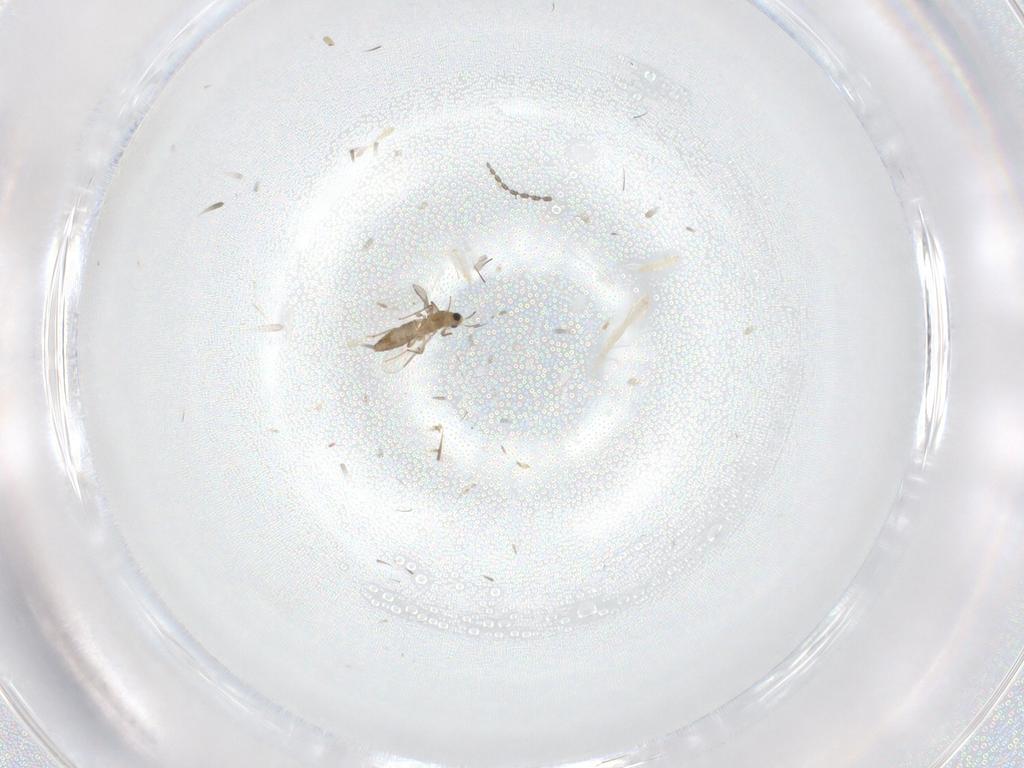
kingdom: Animalia
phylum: Arthropoda
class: Insecta
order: Diptera
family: Chironomidae
